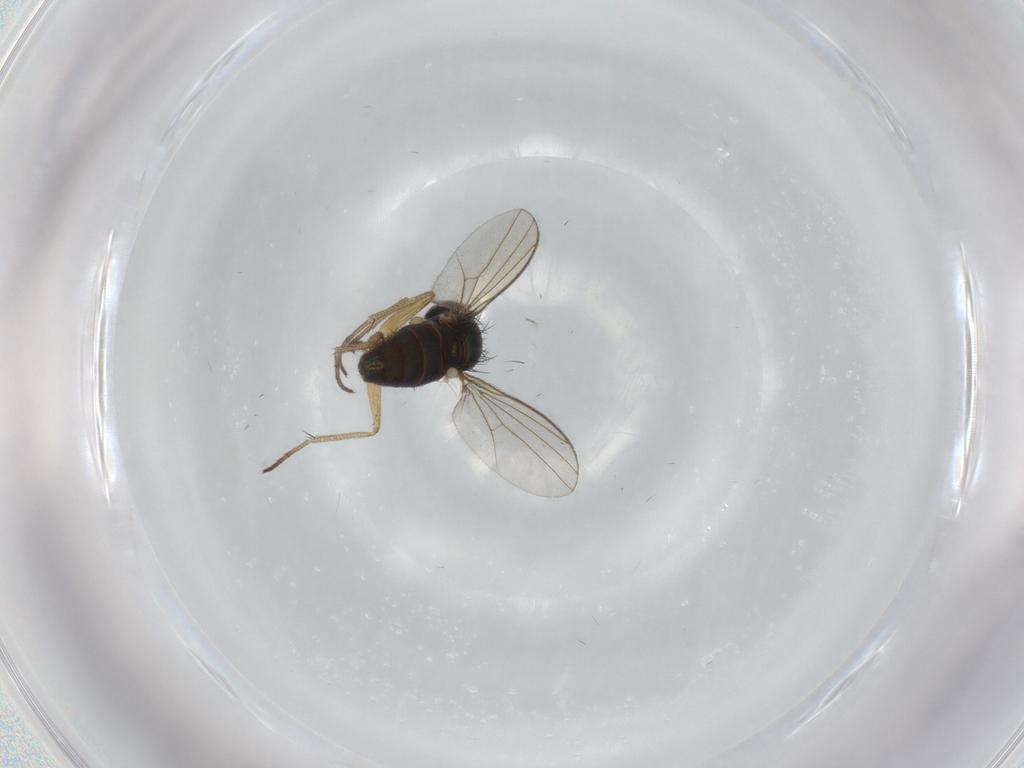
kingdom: Animalia
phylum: Arthropoda
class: Insecta
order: Diptera
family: Dolichopodidae
